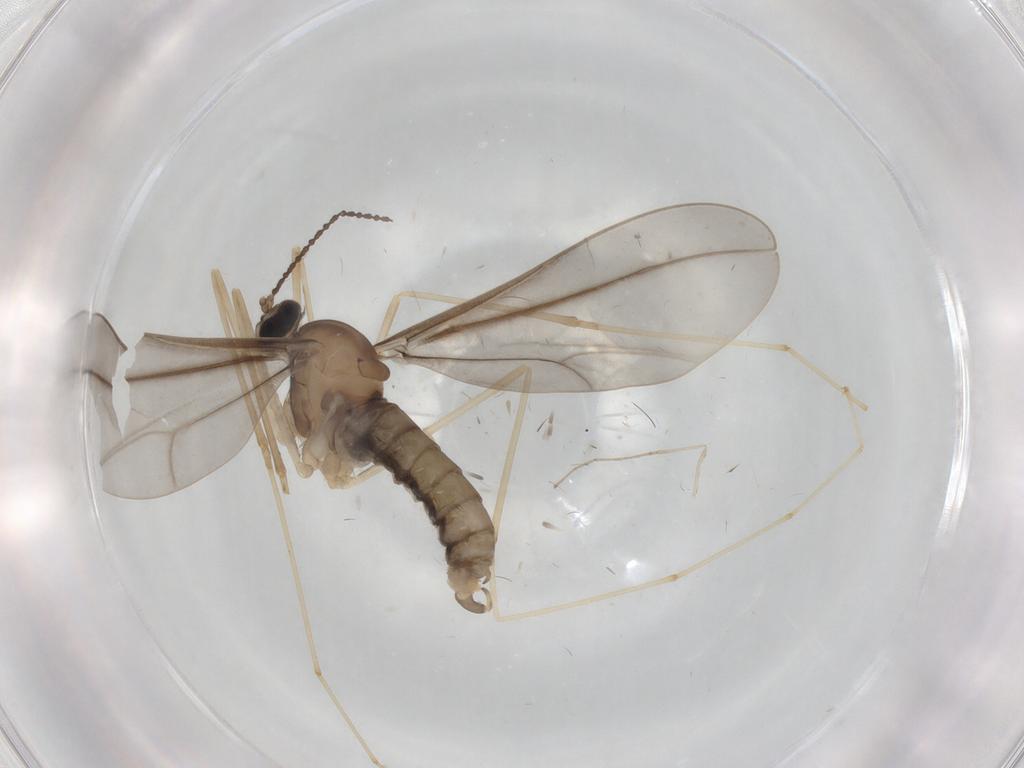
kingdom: Animalia
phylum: Arthropoda
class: Insecta
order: Diptera
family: Cecidomyiidae
